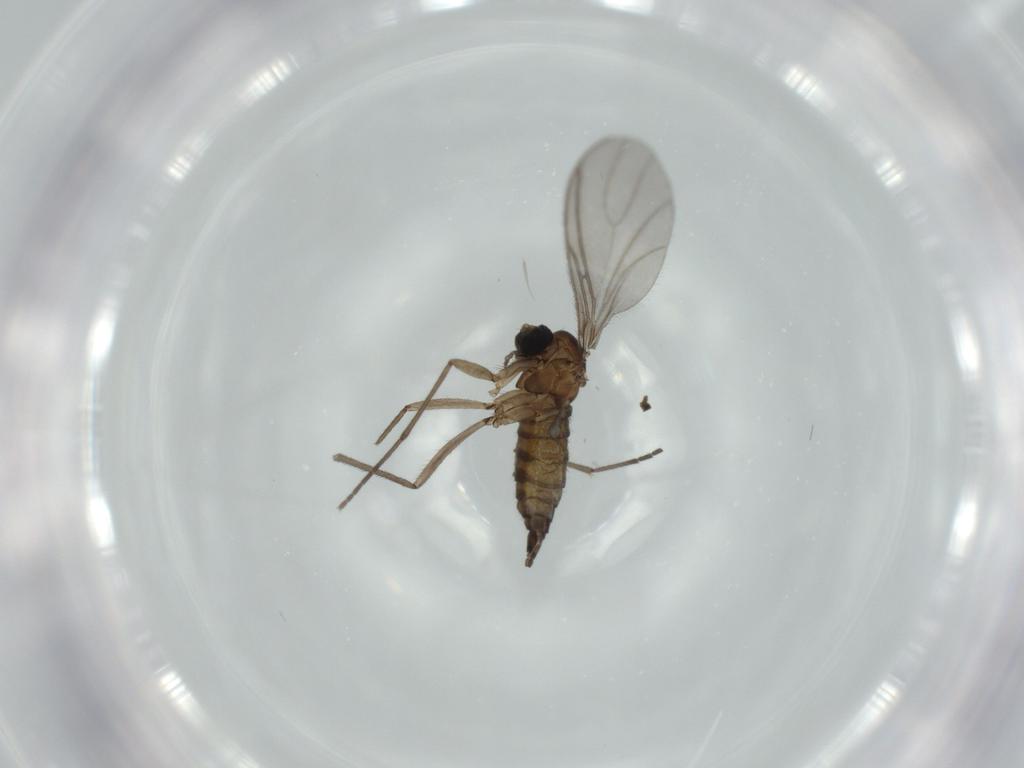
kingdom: Animalia
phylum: Arthropoda
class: Insecta
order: Diptera
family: Sciaridae
